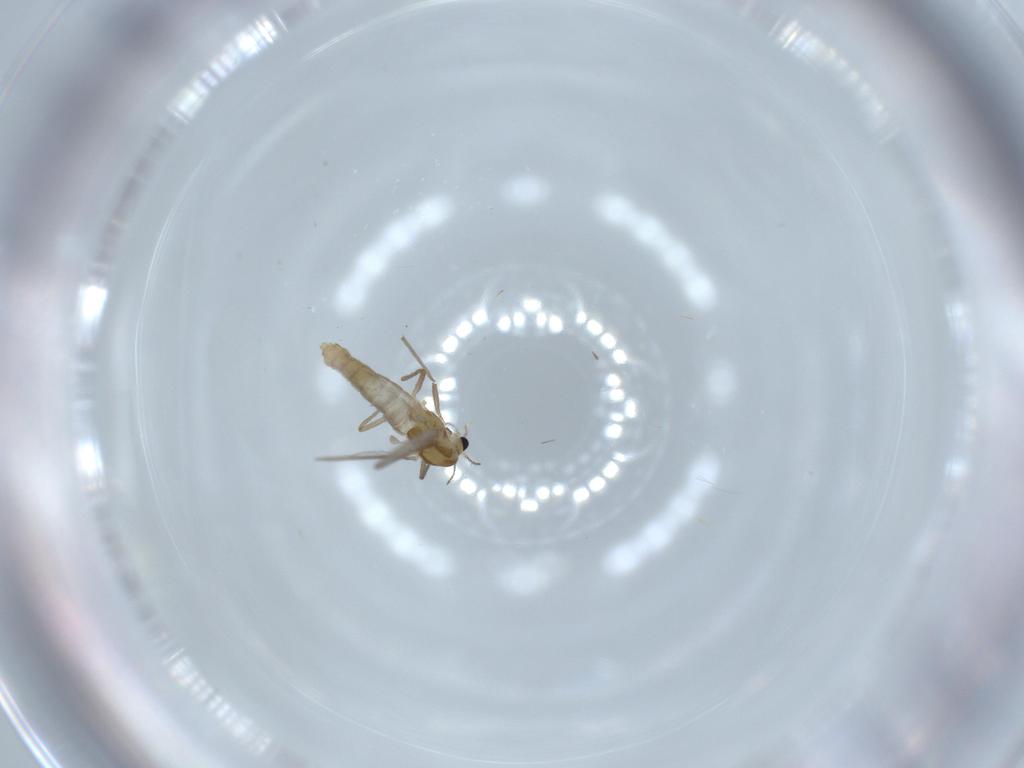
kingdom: Animalia
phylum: Arthropoda
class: Insecta
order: Diptera
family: Chironomidae
